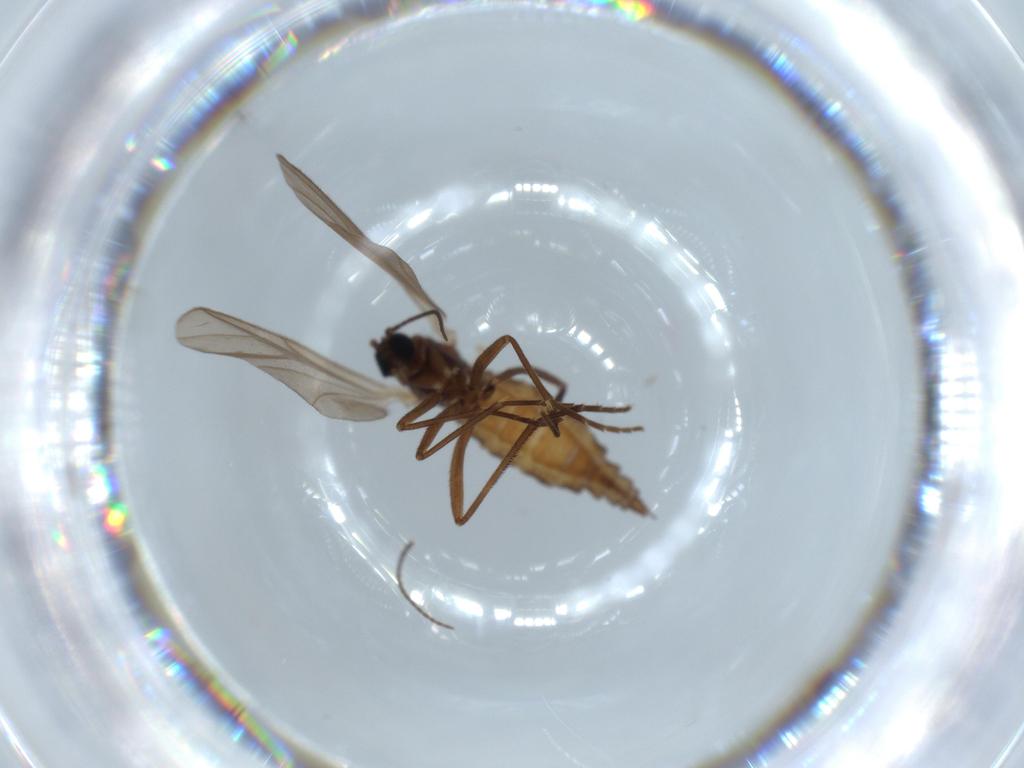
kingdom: Animalia
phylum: Arthropoda
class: Insecta
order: Diptera
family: Sciaridae
